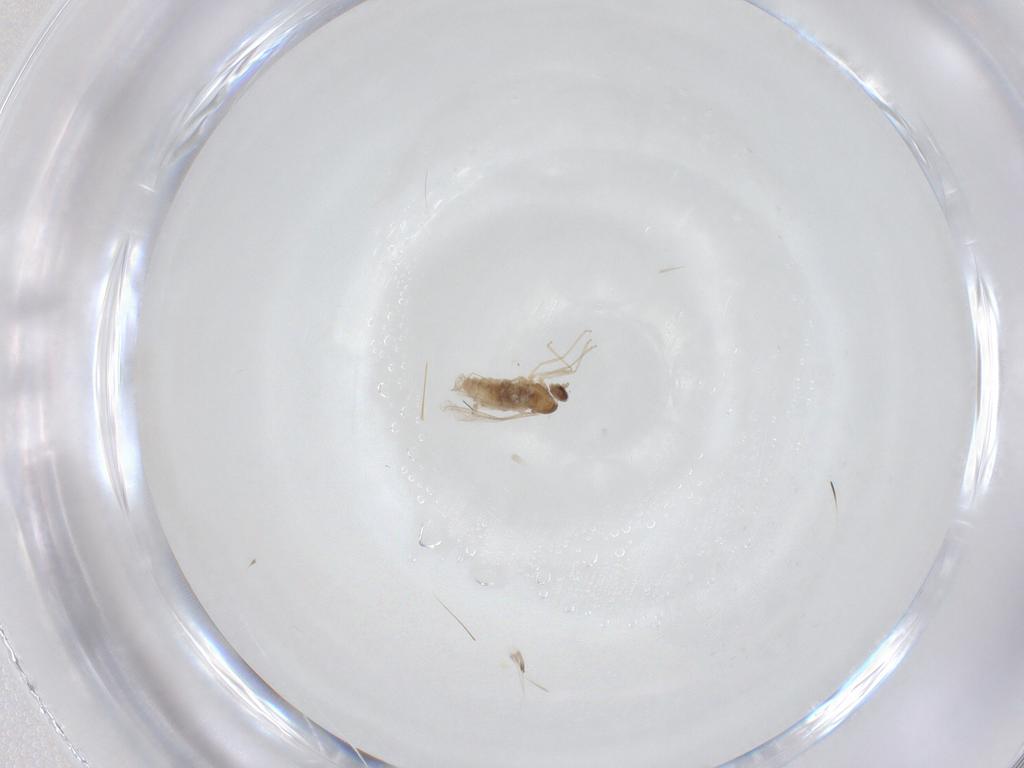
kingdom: Animalia
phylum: Arthropoda
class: Insecta
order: Diptera
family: Cecidomyiidae
